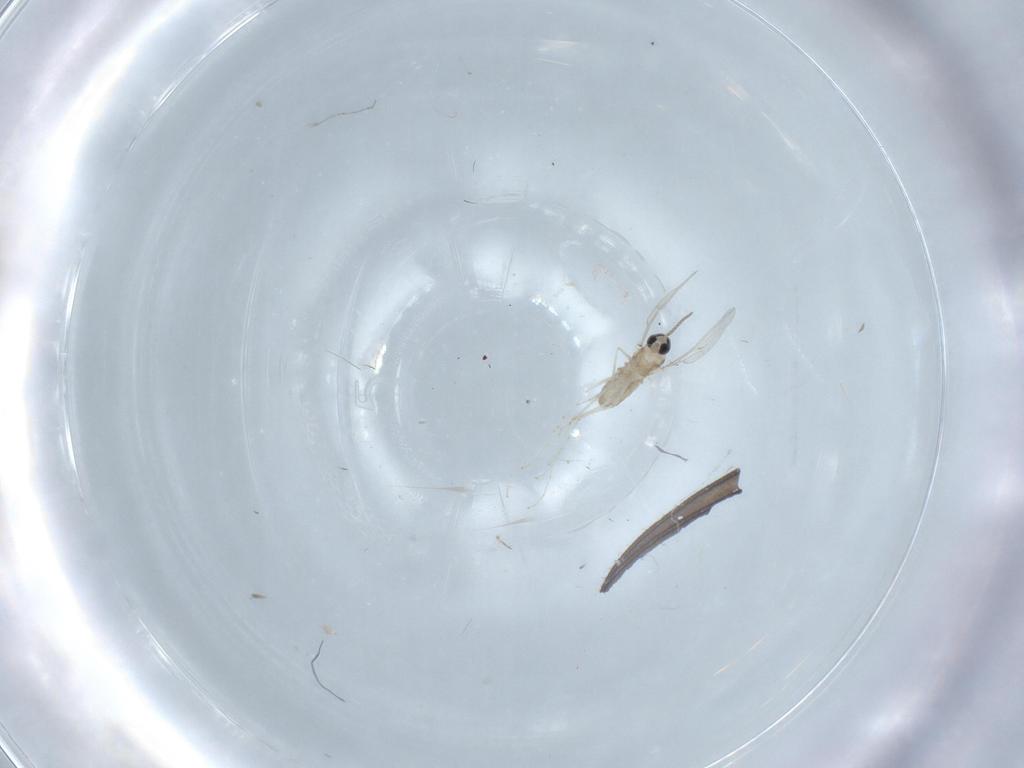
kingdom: Animalia
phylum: Arthropoda
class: Insecta
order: Diptera
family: Cecidomyiidae
